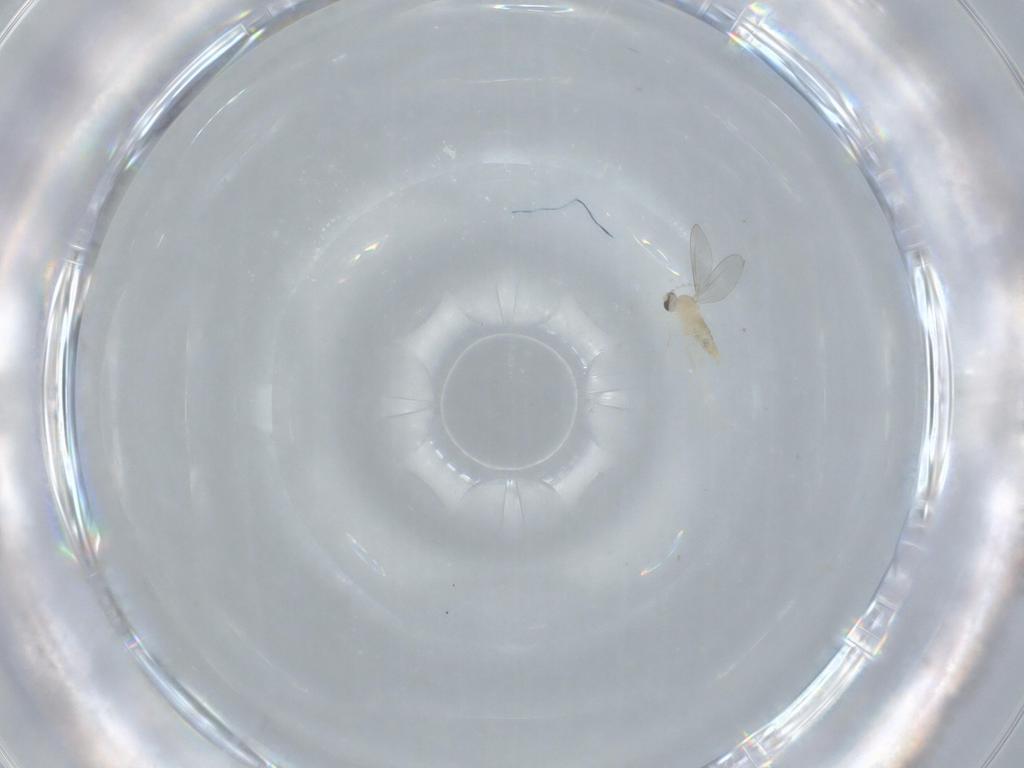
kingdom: Animalia
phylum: Arthropoda
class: Insecta
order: Diptera
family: Cecidomyiidae
